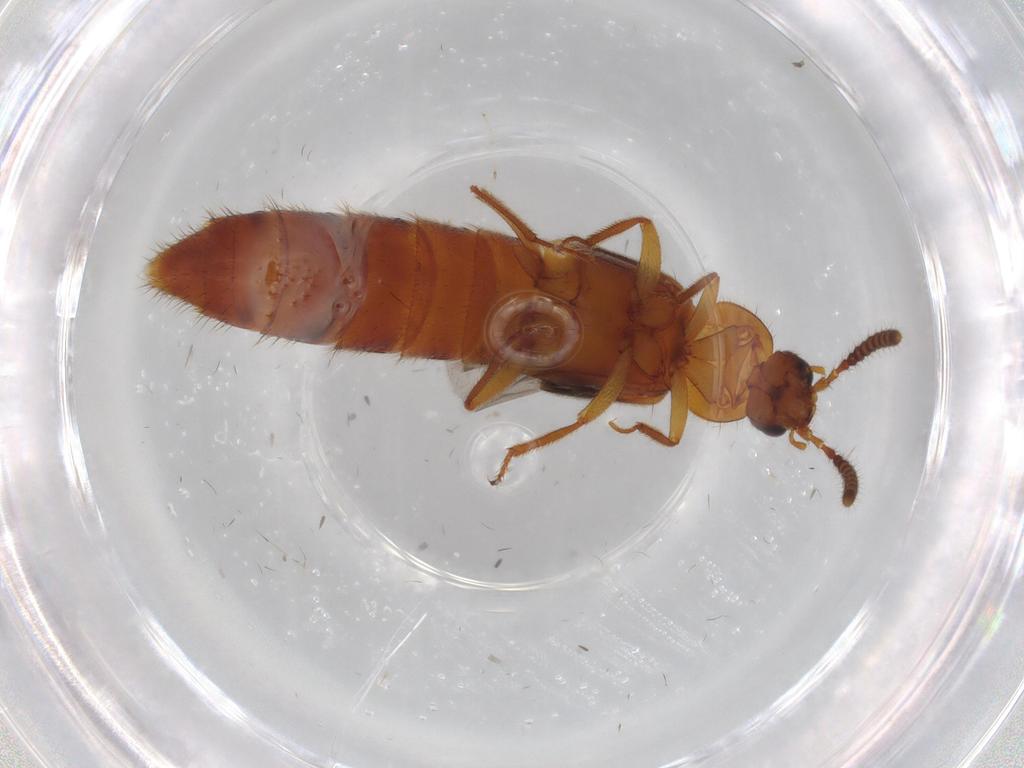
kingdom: Animalia
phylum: Arthropoda
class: Insecta
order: Coleoptera
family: Staphylinidae
